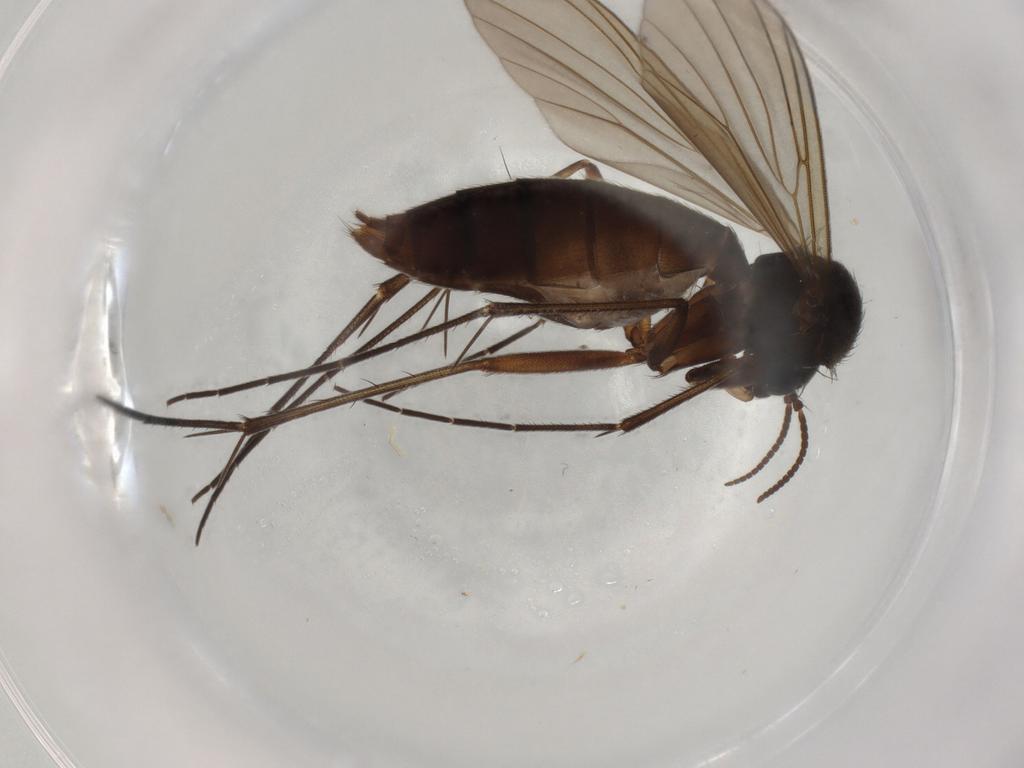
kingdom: Animalia
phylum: Arthropoda
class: Insecta
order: Diptera
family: Mycetophilidae
